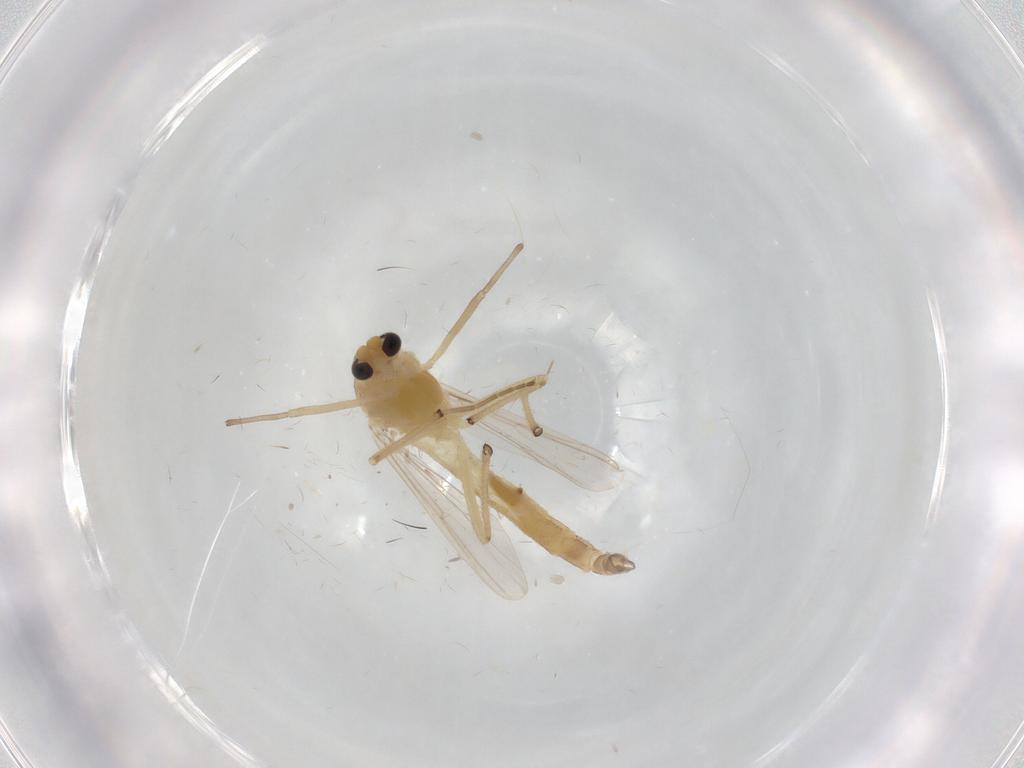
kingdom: Animalia
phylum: Arthropoda
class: Insecta
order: Diptera
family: Chironomidae
